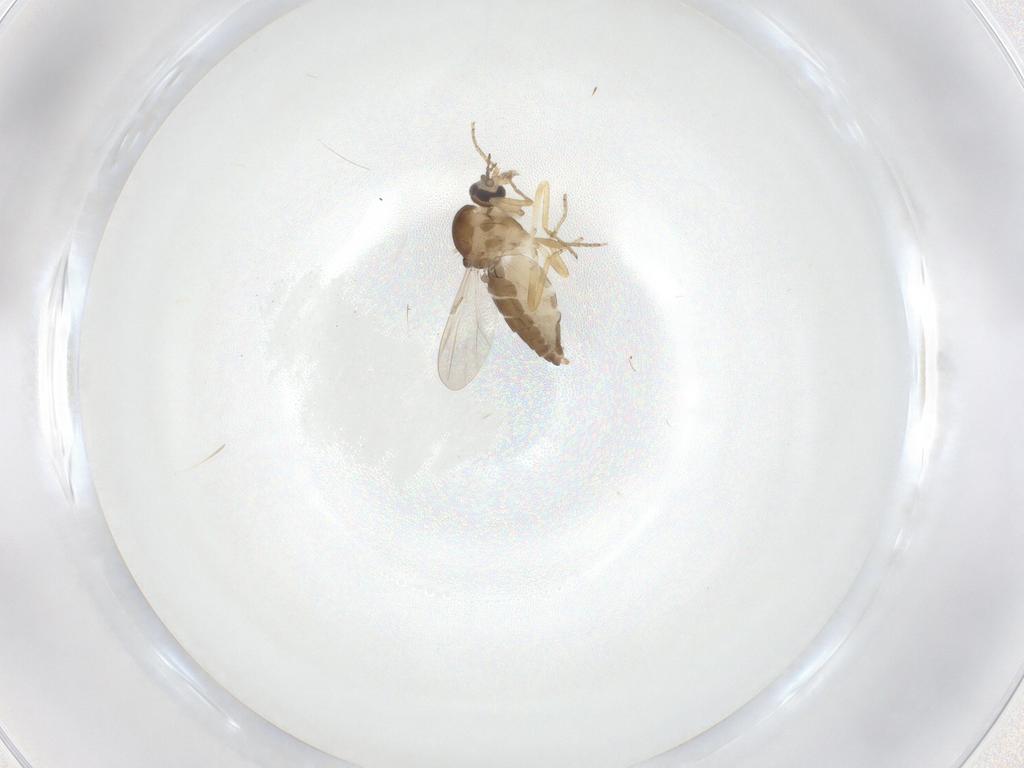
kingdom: Animalia
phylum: Arthropoda
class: Insecta
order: Diptera
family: Ceratopogonidae
